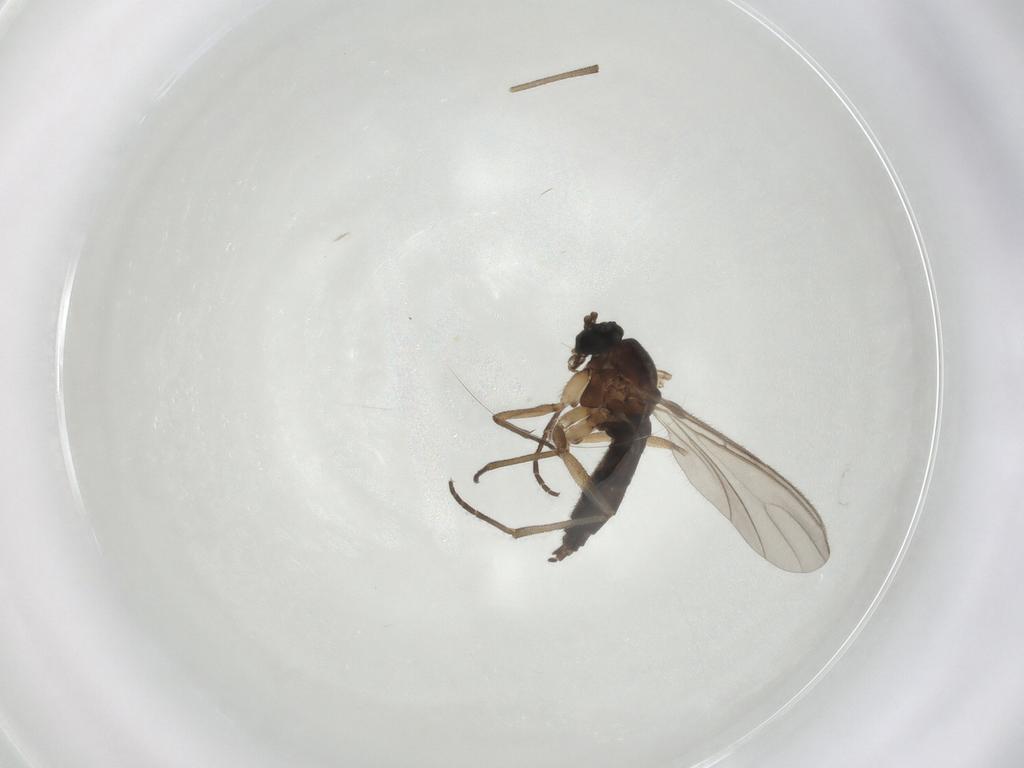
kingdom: Animalia
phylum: Arthropoda
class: Insecta
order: Diptera
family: Sciaridae
